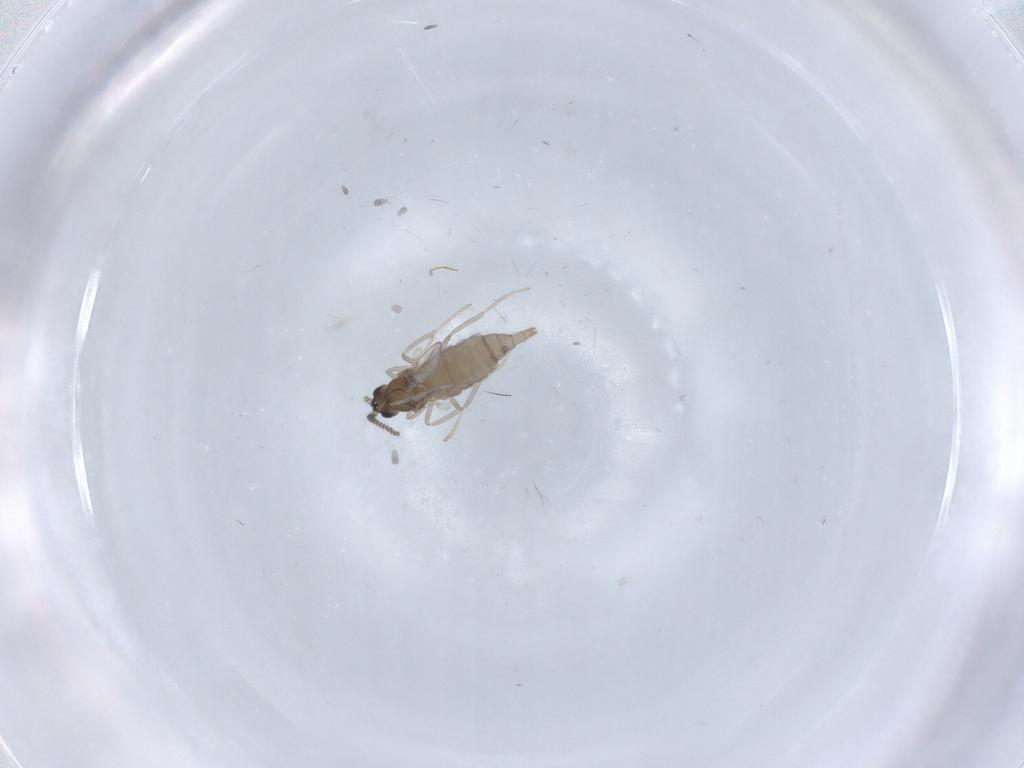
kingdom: Animalia
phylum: Arthropoda
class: Insecta
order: Diptera
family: Cecidomyiidae
